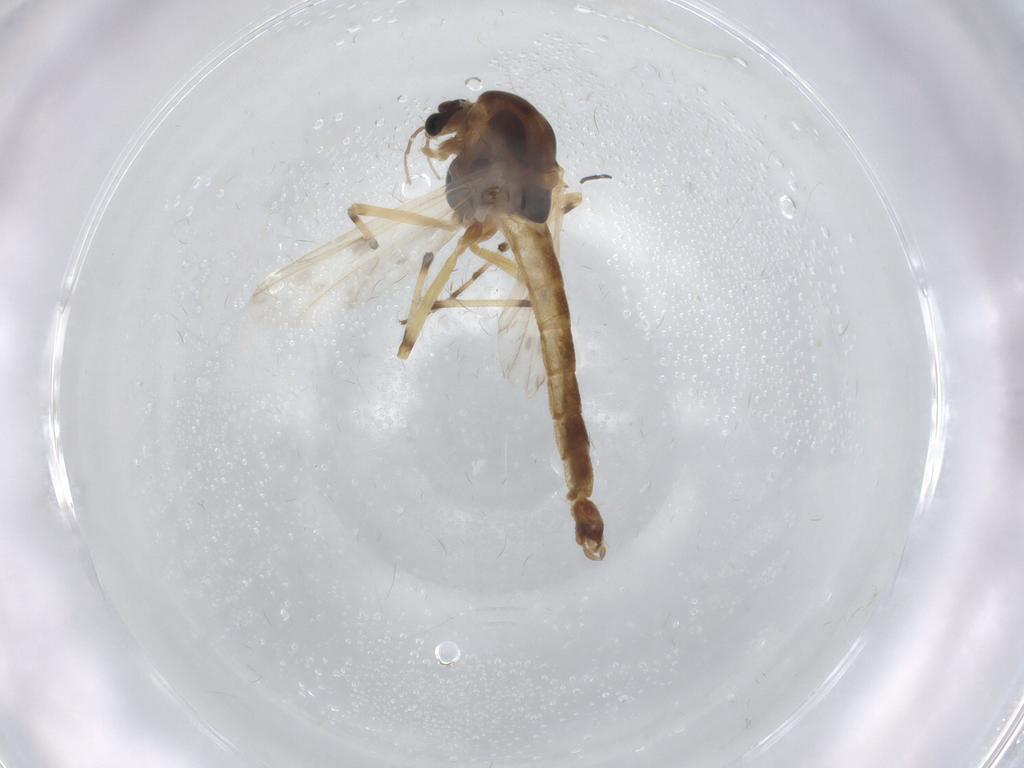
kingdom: Animalia
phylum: Arthropoda
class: Insecta
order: Diptera
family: Chironomidae
